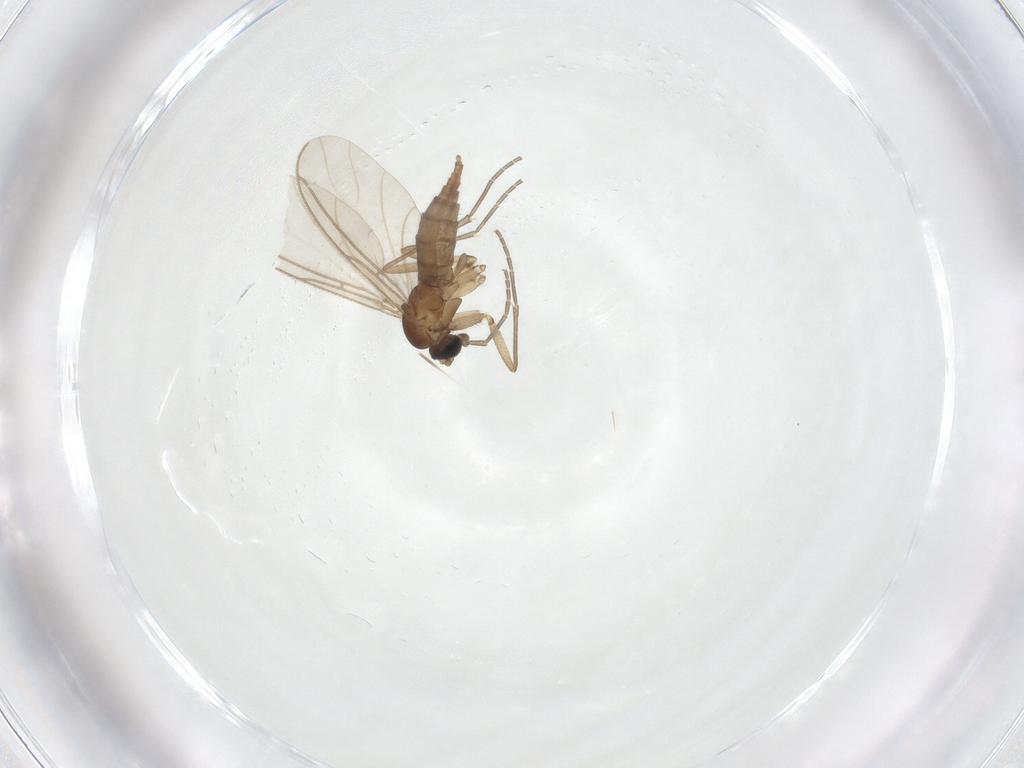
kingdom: Animalia
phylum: Arthropoda
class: Insecta
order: Diptera
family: Sciaridae
